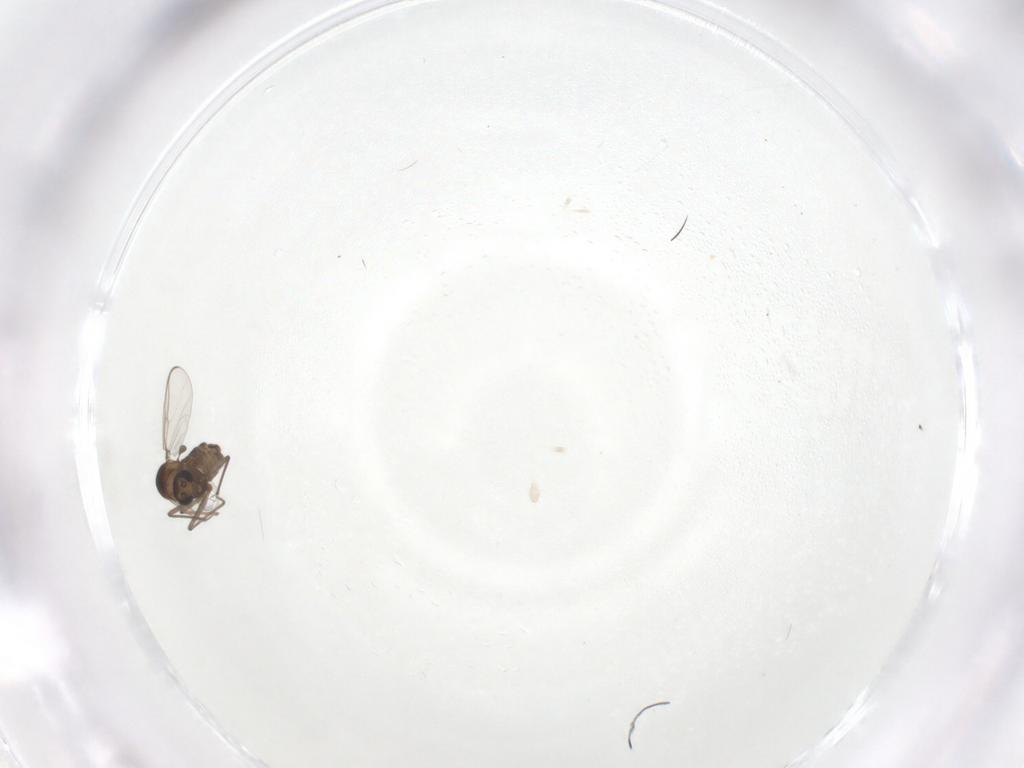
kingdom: Animalia
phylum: Arthropoda
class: Insecta
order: Diptera
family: Chironomidae
